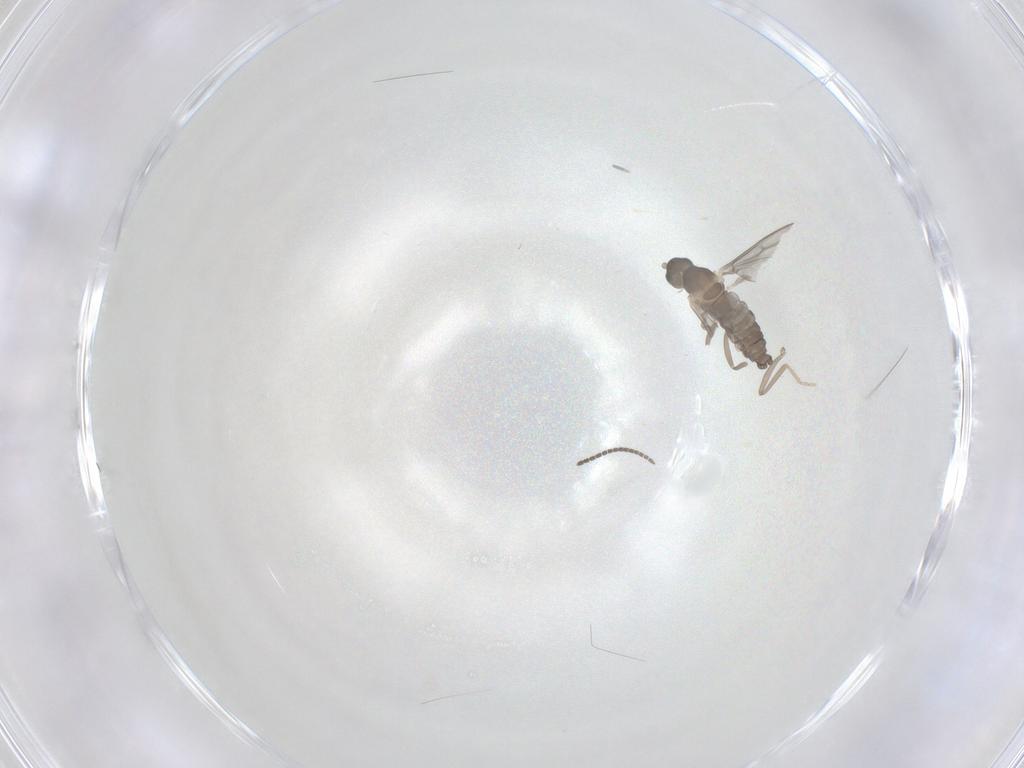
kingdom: Animalia
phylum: Arthropoda
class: Insecta
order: Diptera
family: Cecidomyiidae
